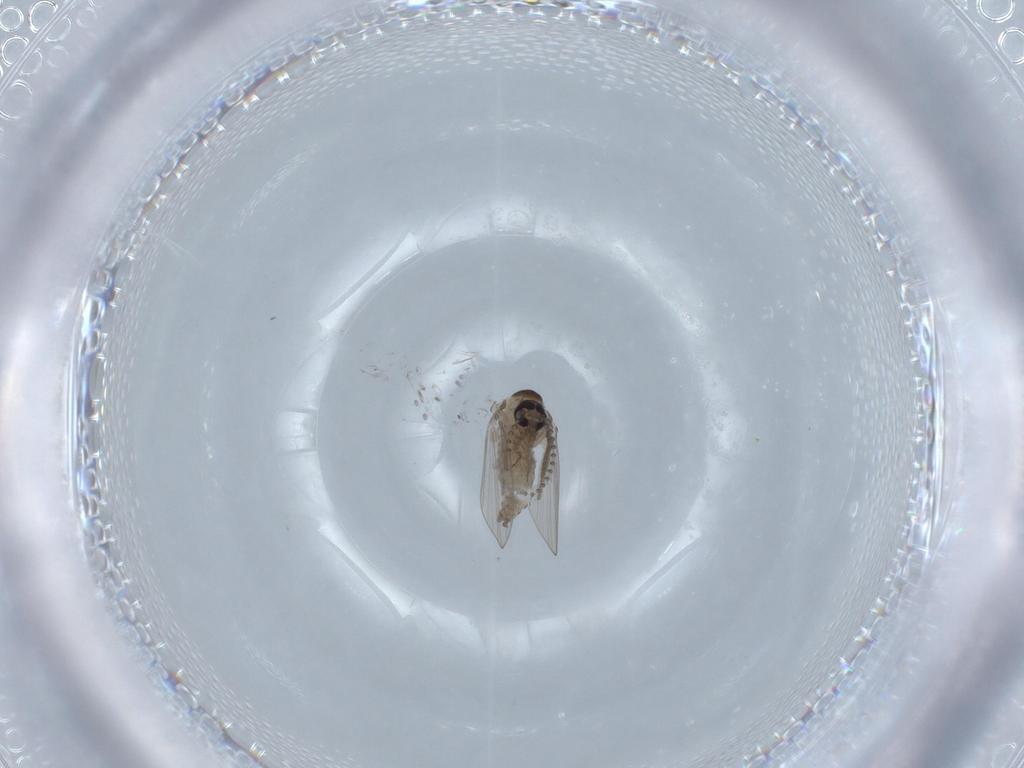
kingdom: Animalia
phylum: Arthropoda
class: Insecta
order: Diptera
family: Psychodidae
